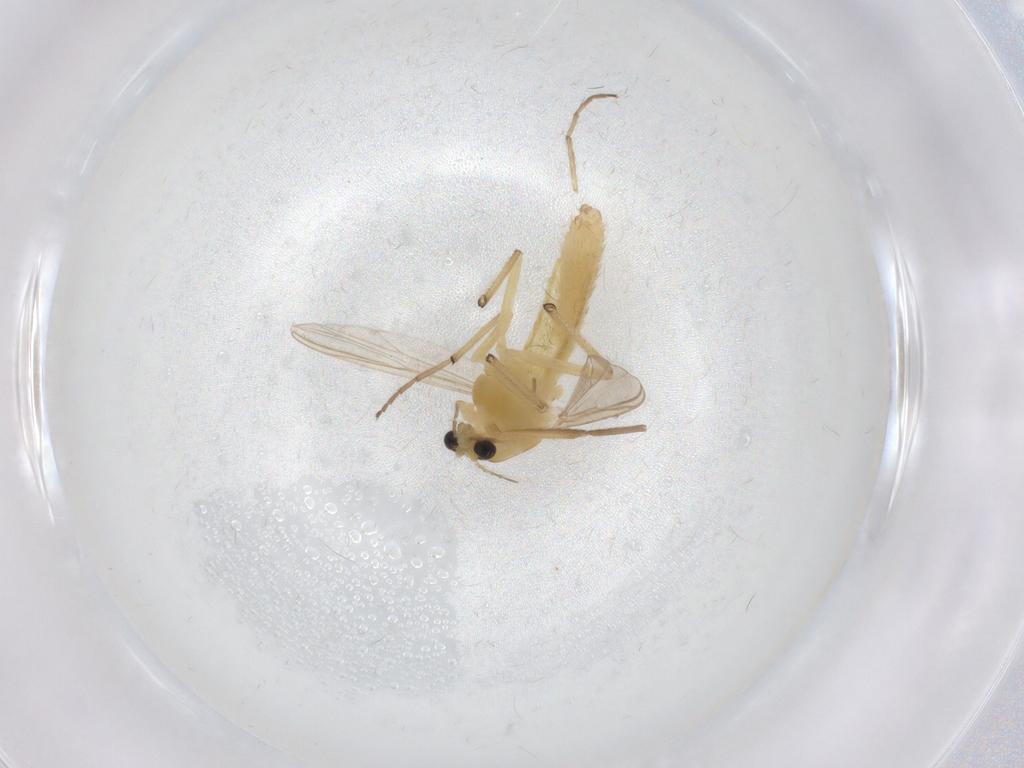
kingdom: Animalia
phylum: Arthropoda
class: Insecta
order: Diptera
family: Chironomidae
